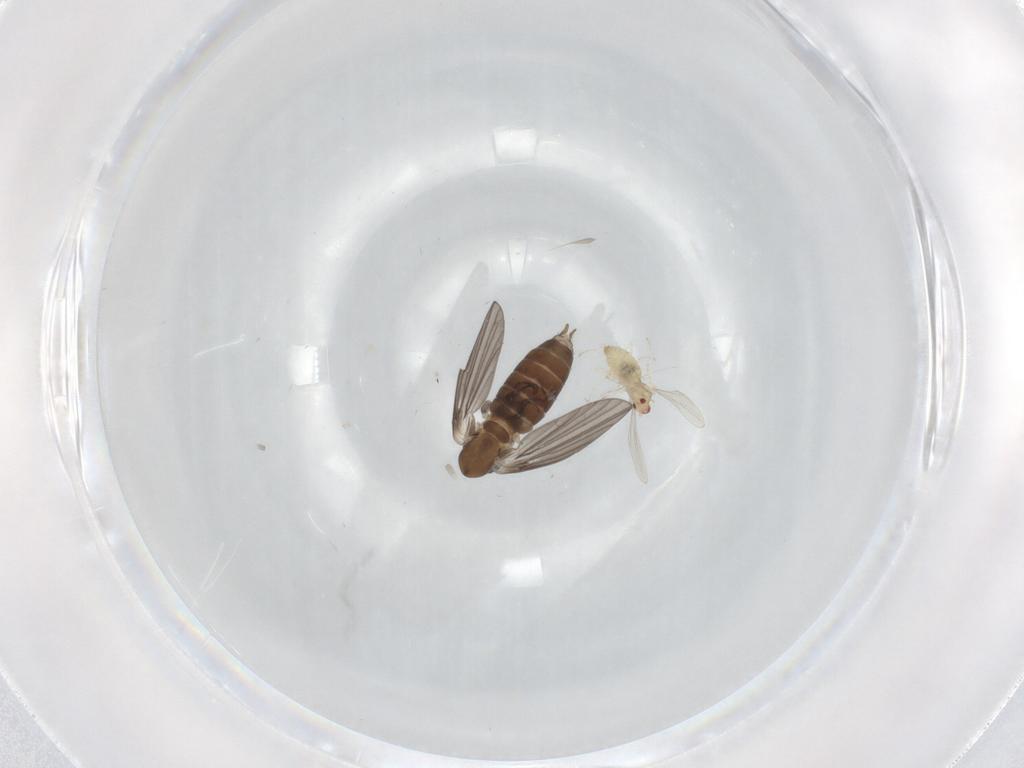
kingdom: Animalia
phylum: Arthropoda
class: Insecta
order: Diptera
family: Psychodidae
